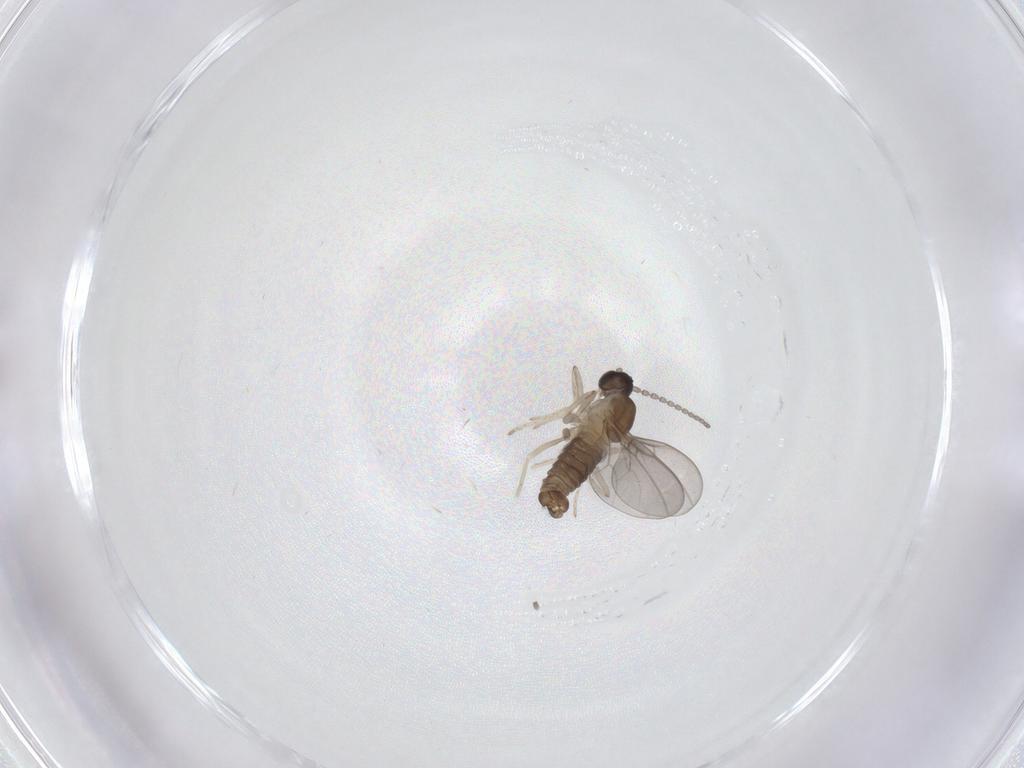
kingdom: Animalia
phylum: Arthropoda
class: Insecta
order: Diptera
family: Cecidomyiidae
